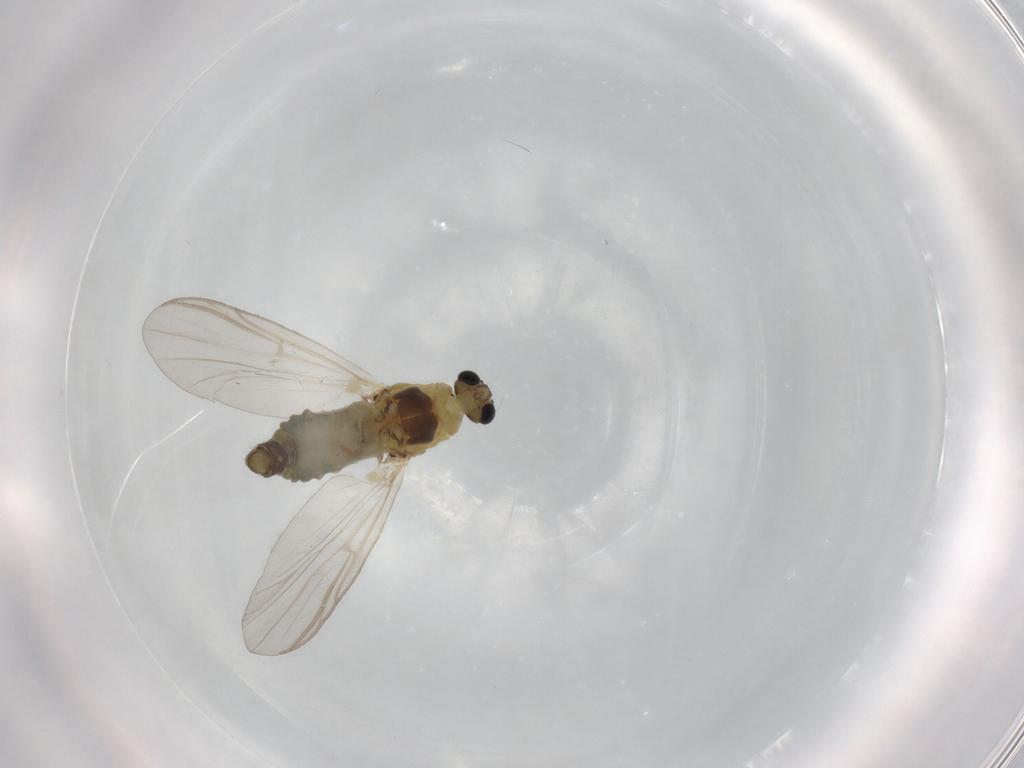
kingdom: Animalia
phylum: Arthropoda
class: Insecta
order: Diptera
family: Chironomidae
